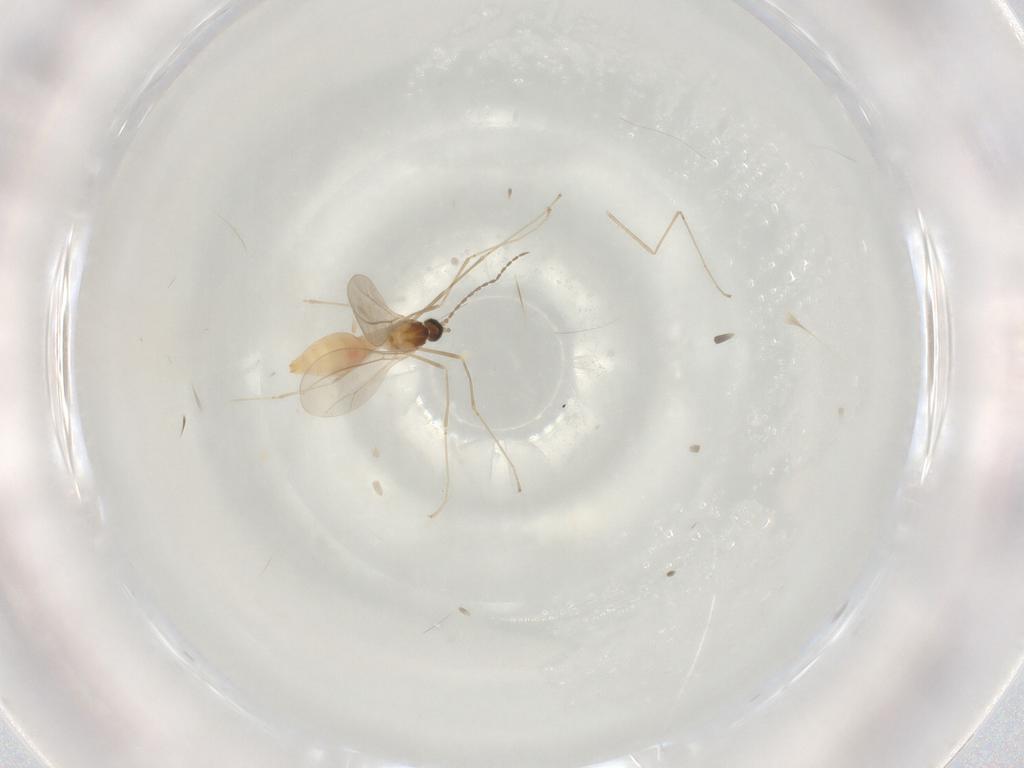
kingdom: Animalia
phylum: Arthropoda
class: Insecta
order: Diptera
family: Cecidomyiidae
